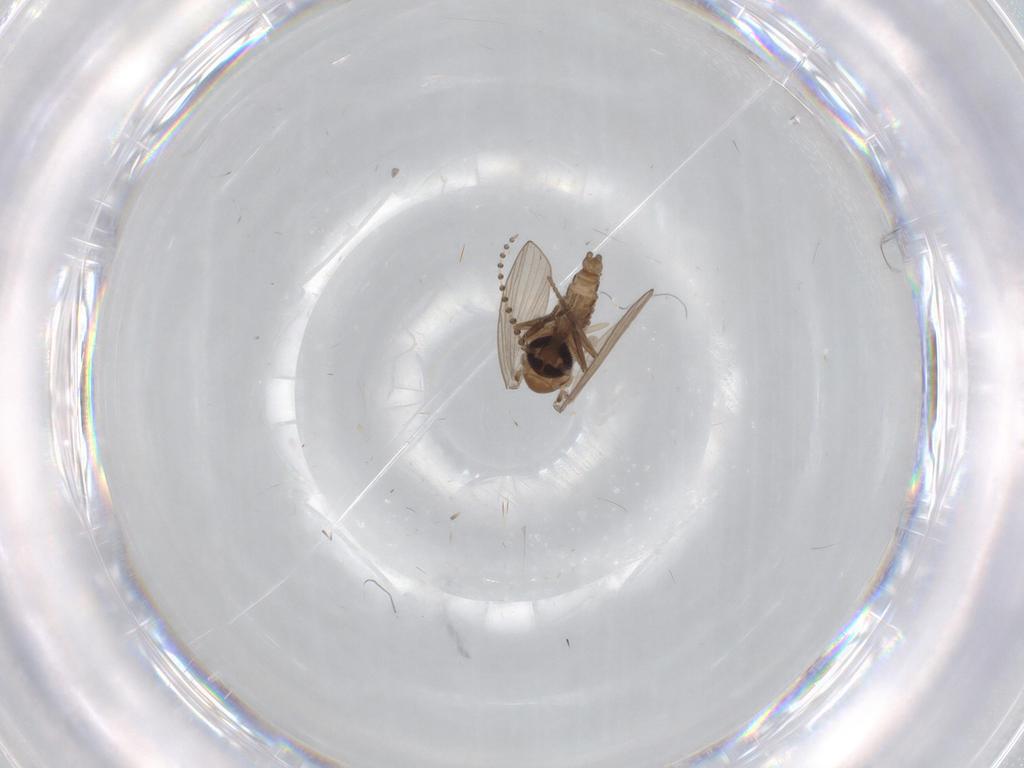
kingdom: Animalia
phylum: Arthropoda
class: Insecta
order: Diptera
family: Psychodidae
